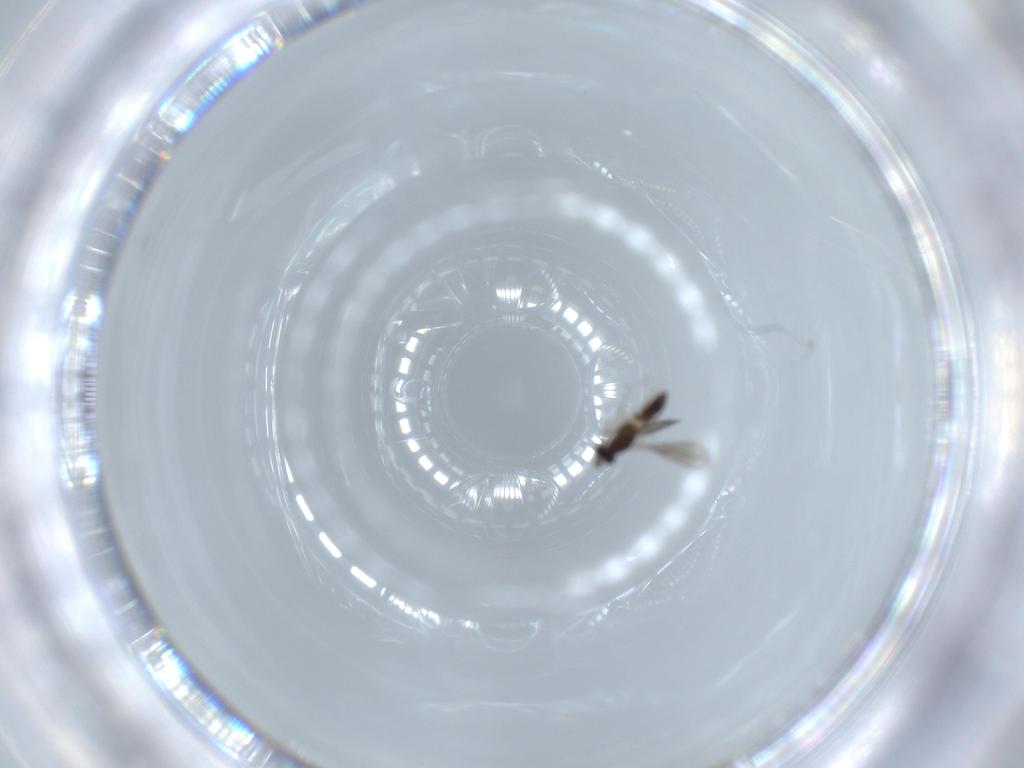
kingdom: Animalia
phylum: Arthropoda
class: Insecta
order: Hymenoptera
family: Eulophidae
